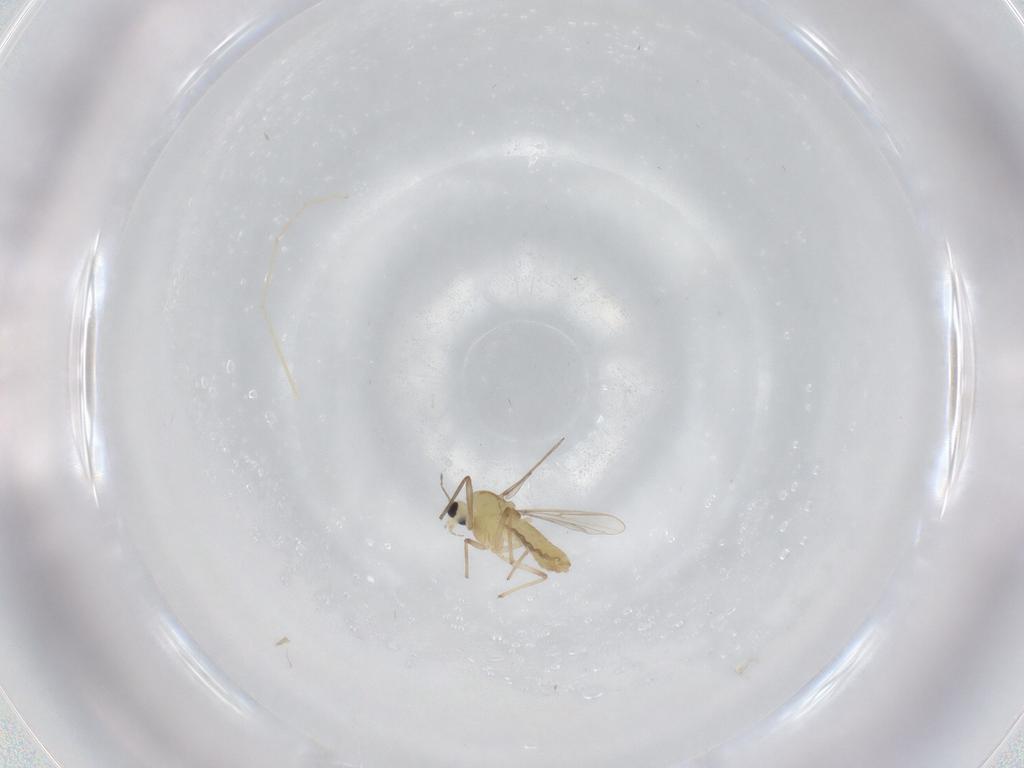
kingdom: Animalia
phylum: Arthropoda
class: Insecta
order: Diptera
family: Chironomidae
